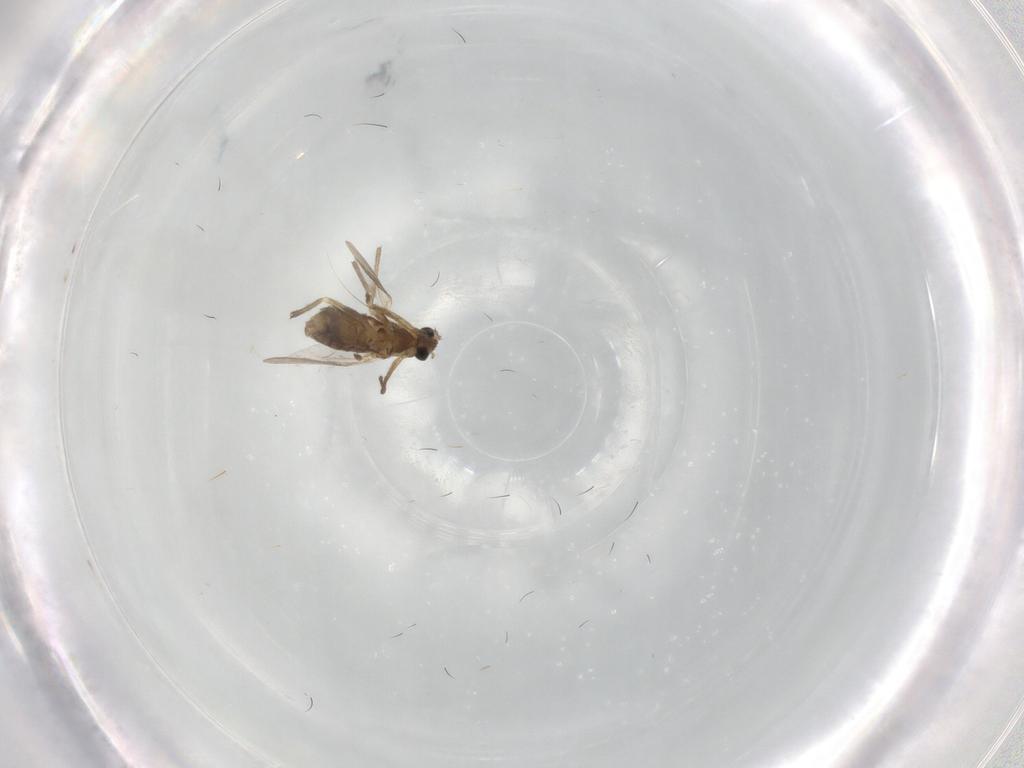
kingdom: Animalia
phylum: Arthropoda
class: Insecta
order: Diptera
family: Chironomidae
